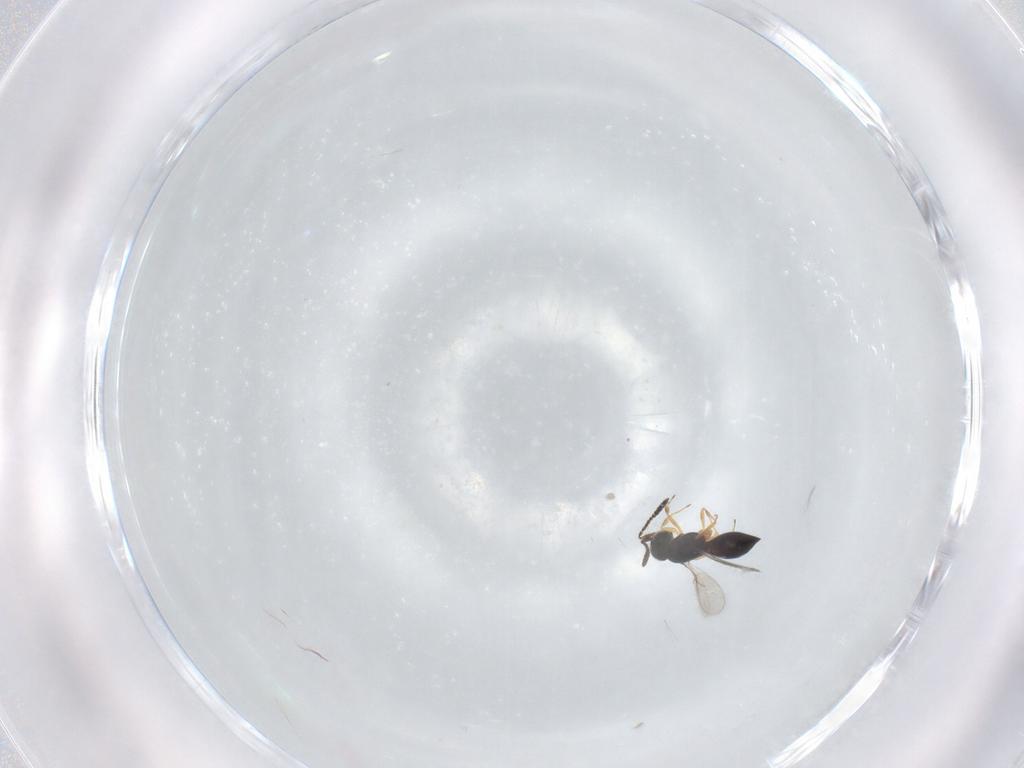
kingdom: Animalia
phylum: Arthropoda
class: Insecta
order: Hymenoptera
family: Scelionidae
